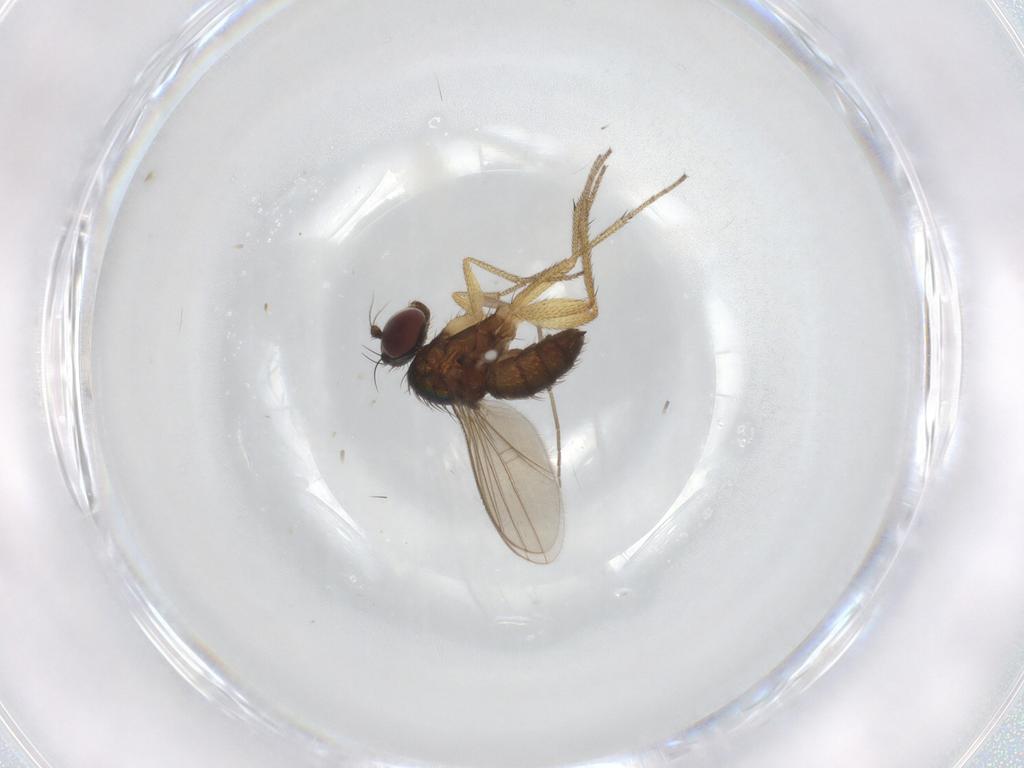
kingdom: Animalia
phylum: Arthropoda
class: Insecta
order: Diptera
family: Chironomidae
